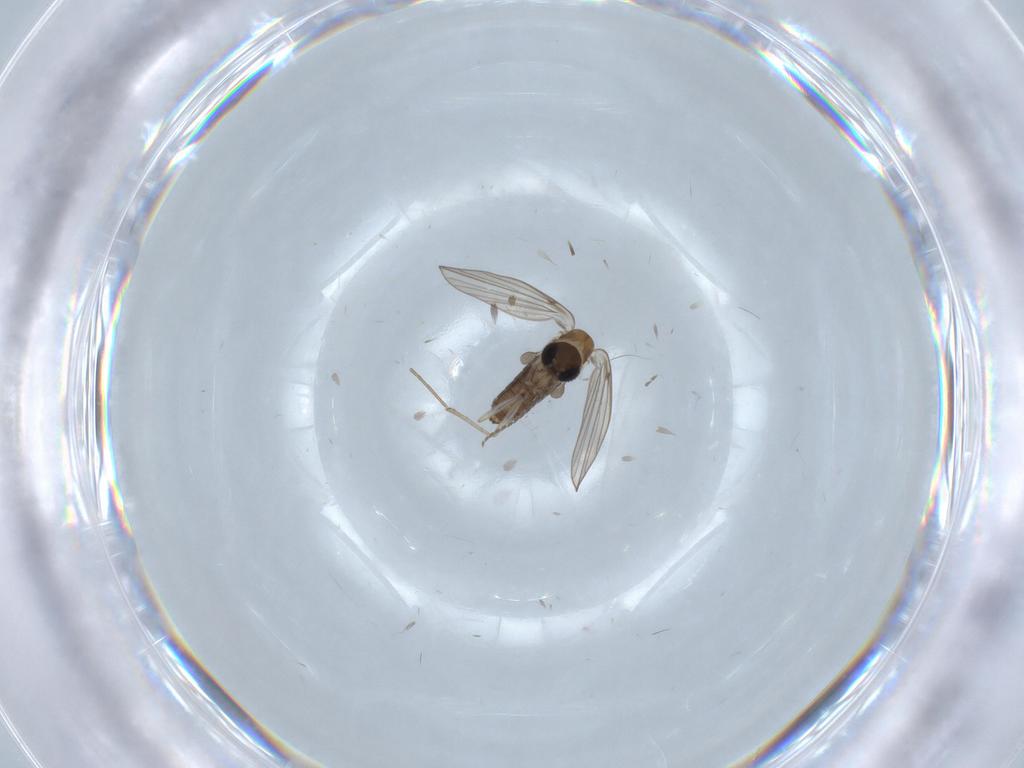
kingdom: Animalia
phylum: Arthropoda
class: Insecta
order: Diptera
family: Psychodidae
